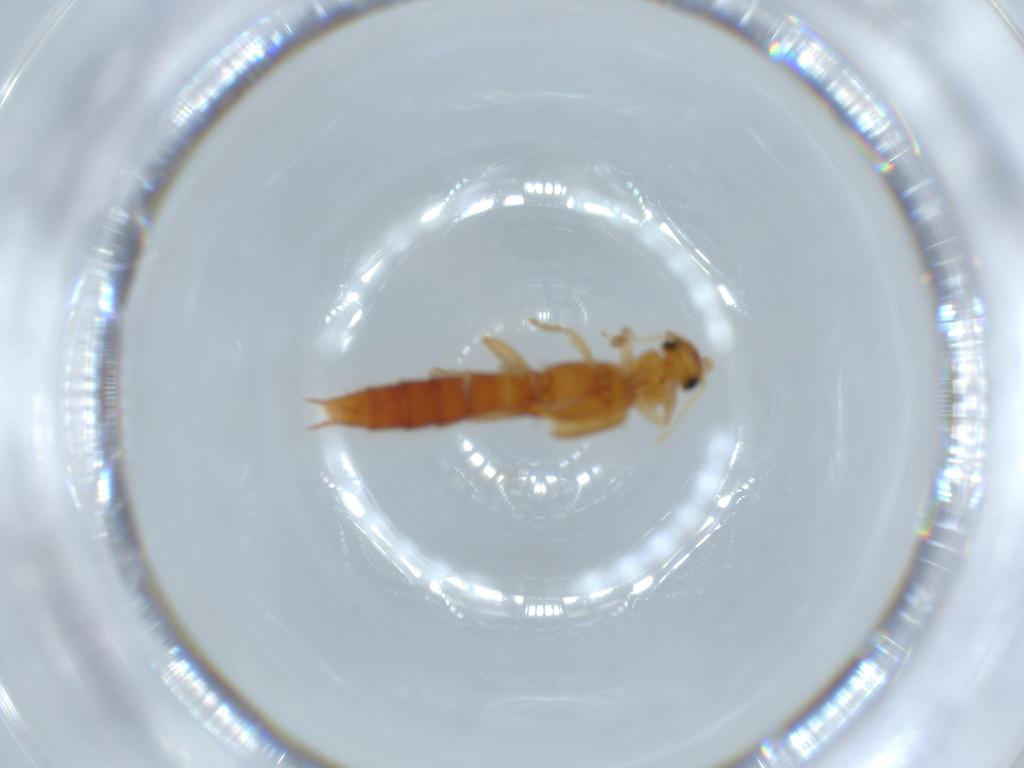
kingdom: Animalia
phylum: Arthropoda
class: Insecta
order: Coleoptera
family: Staphylinidae
